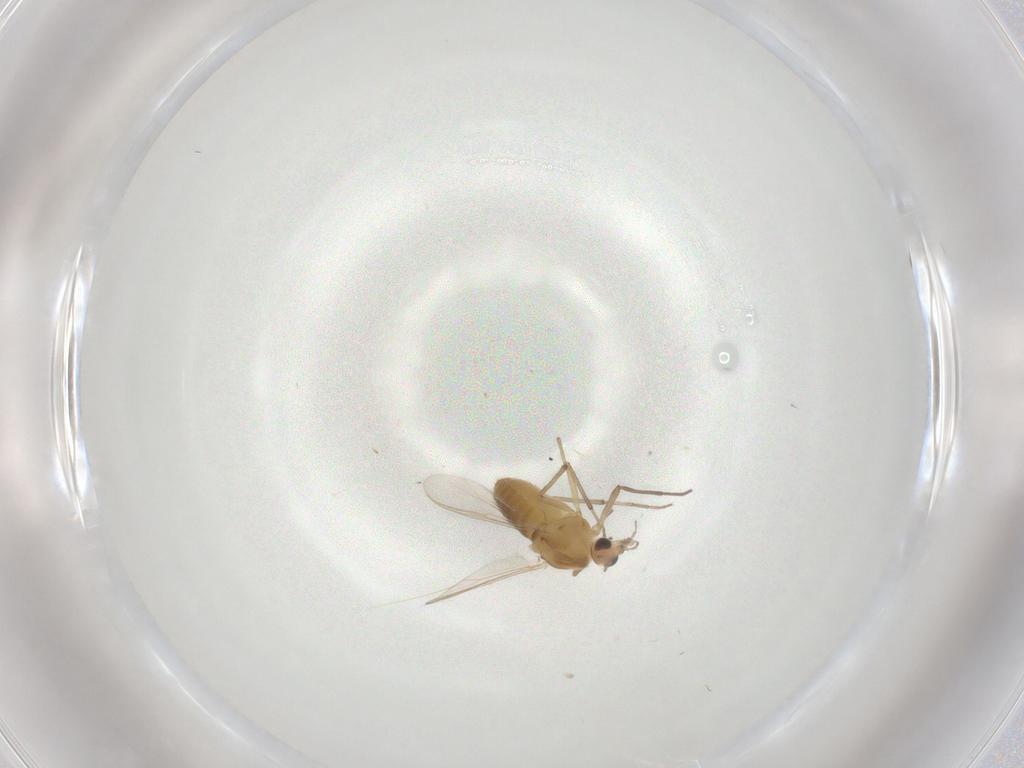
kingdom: Animalia
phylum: Arthropoda
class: Insecta
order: Diptera
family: Chironomidae
